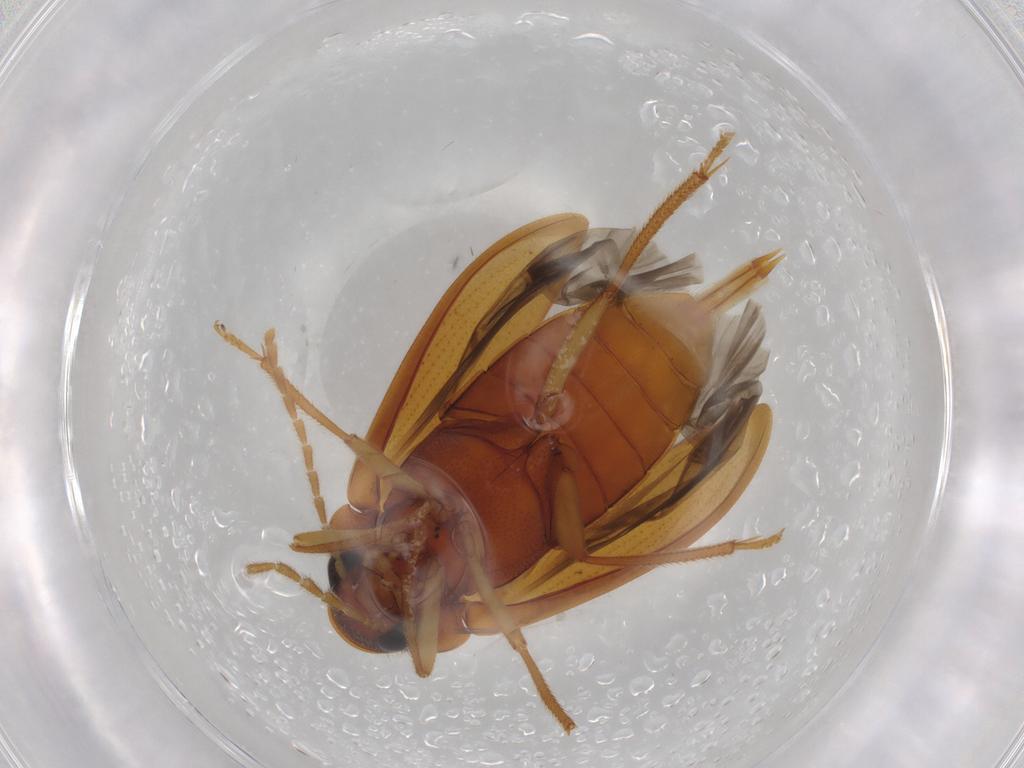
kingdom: Animalia
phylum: Arthropoda
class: Insecta
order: Coleoptera
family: Ptilodactylidae
